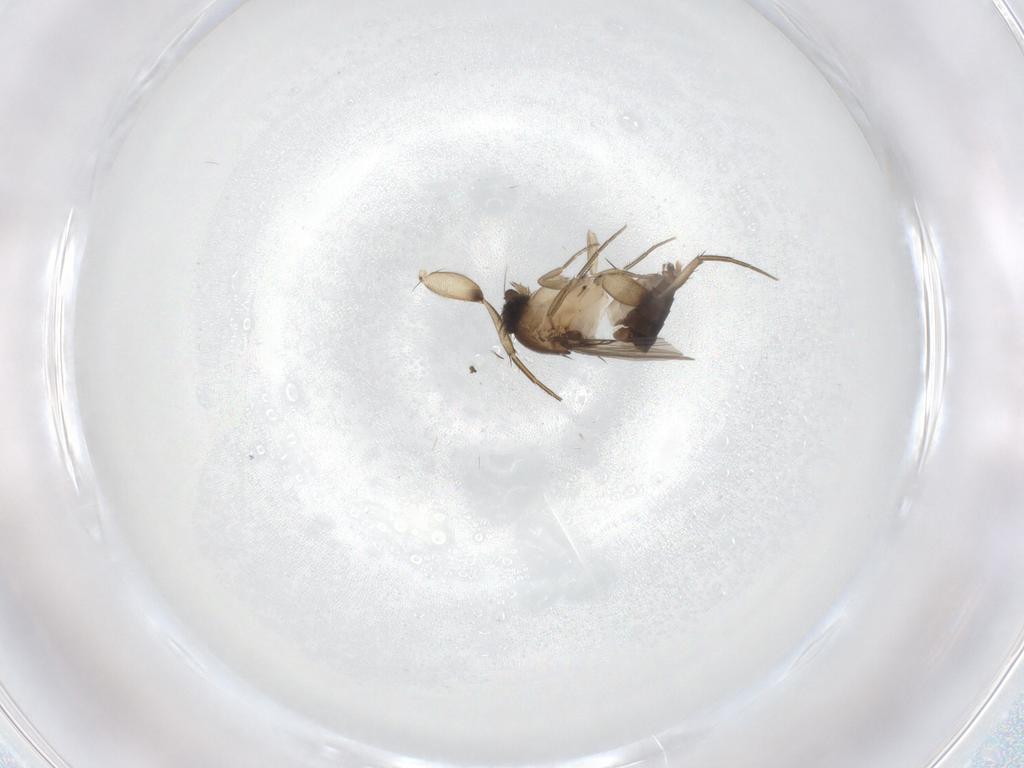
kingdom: Animalia
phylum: Arthropoda
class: Insecta
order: Diptera
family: Phoridae
